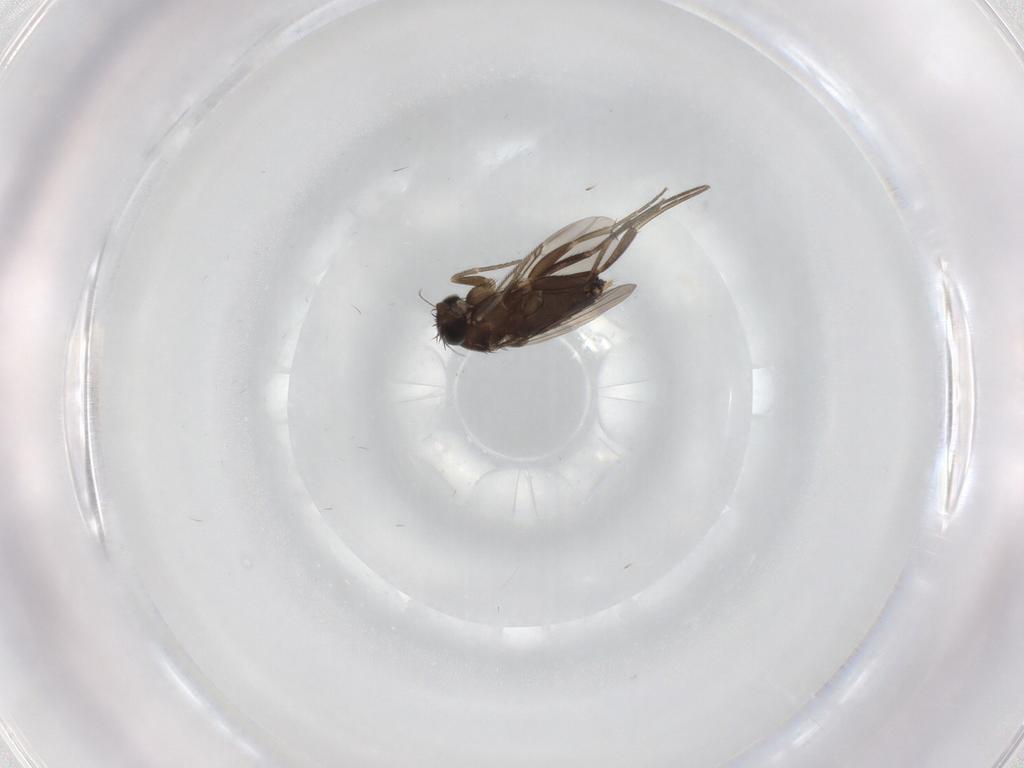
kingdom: Animalia
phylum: Arthropoda
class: Insecta
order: Diptera
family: Phoridae
